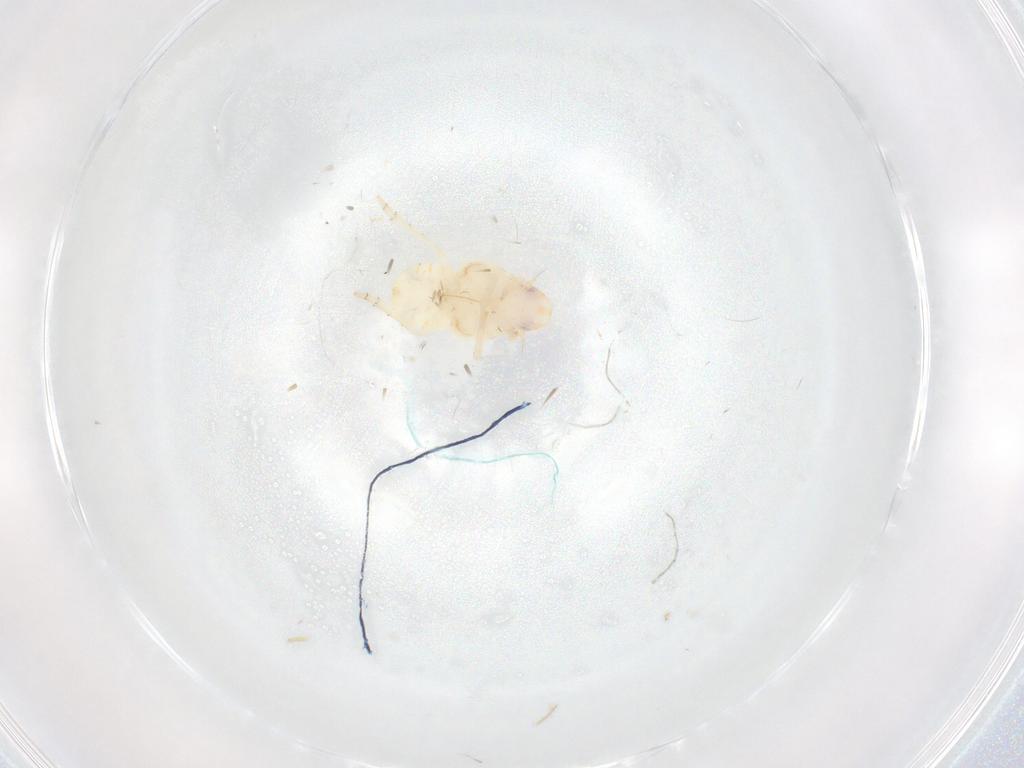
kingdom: Animalia
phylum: Arthropoda
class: Insecta
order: Hemiptera
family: Flatidae
